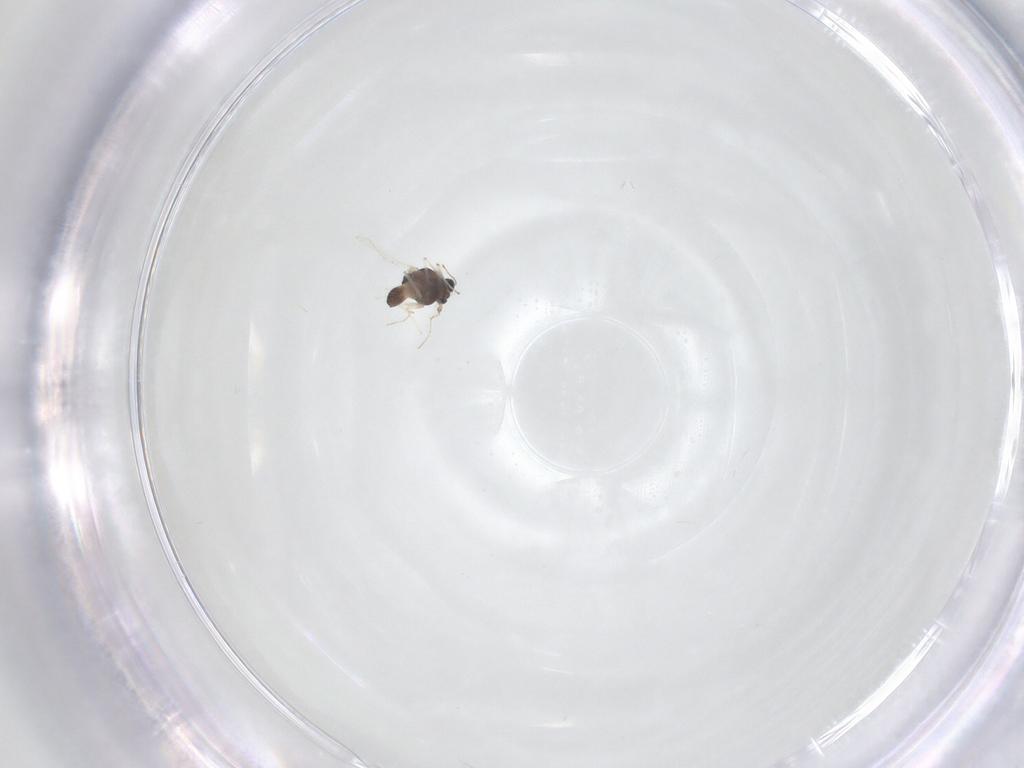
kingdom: Animalia
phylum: Arthropoda
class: Insecta
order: Diptera
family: Chironomidae
